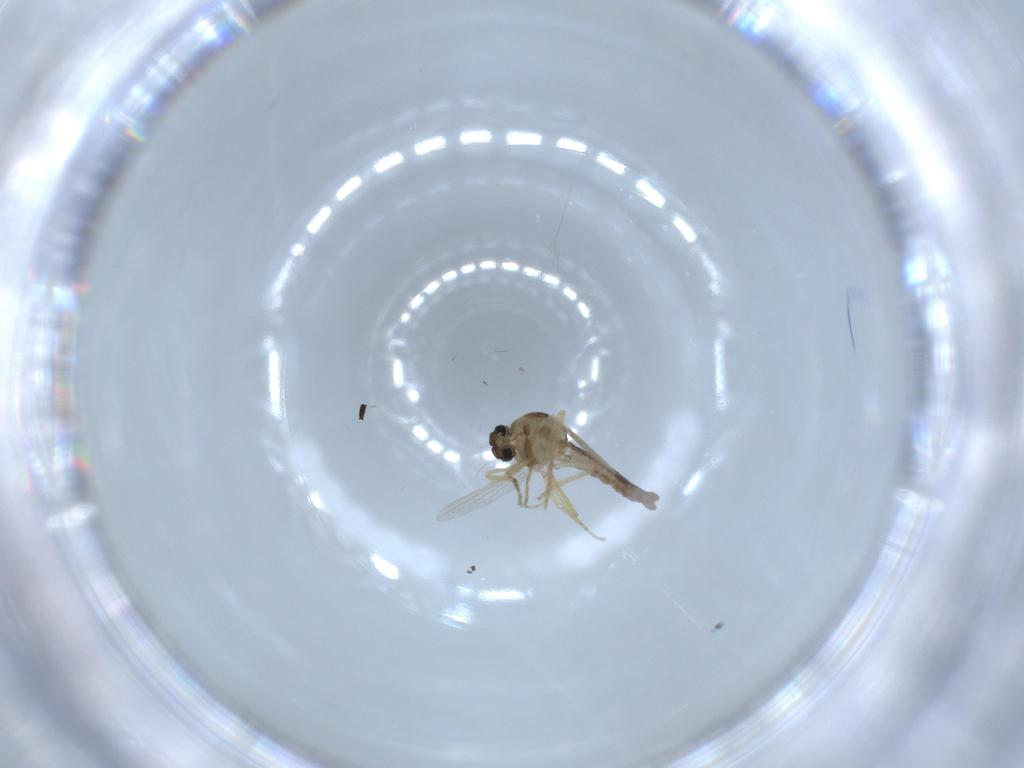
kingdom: Animalia
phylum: Arthropoda
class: Insecta
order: Diptera
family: Ceratopogonidae
